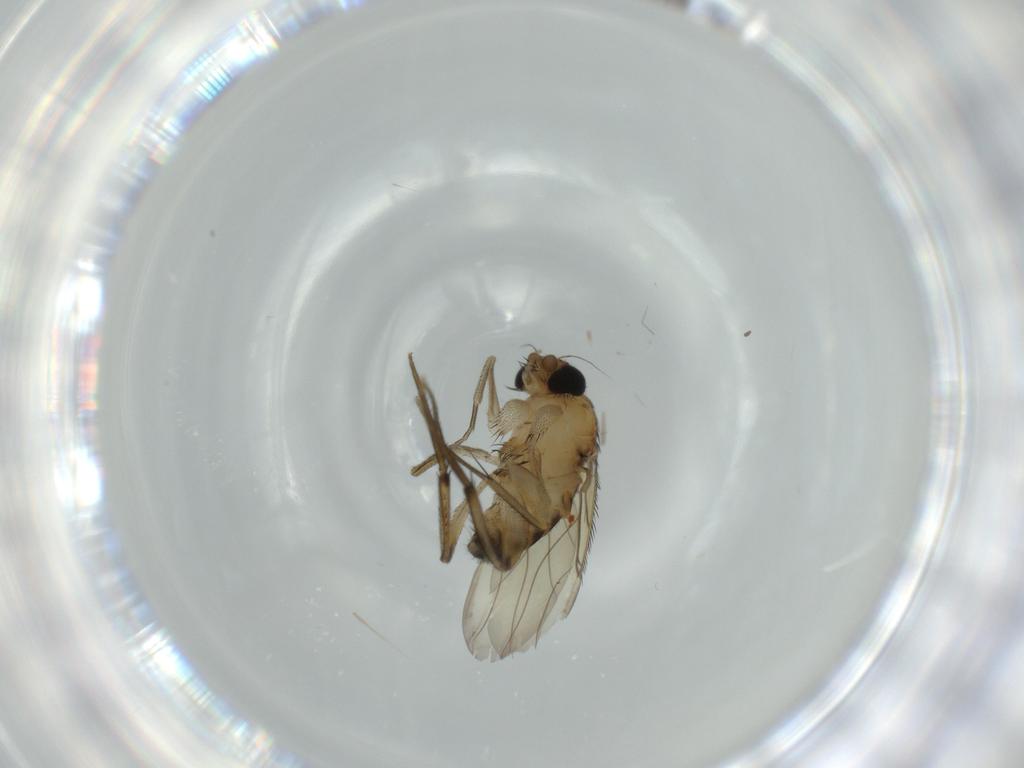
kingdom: Animalia
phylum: Arthropoda
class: Insecta
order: Diptera
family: Phoridae
